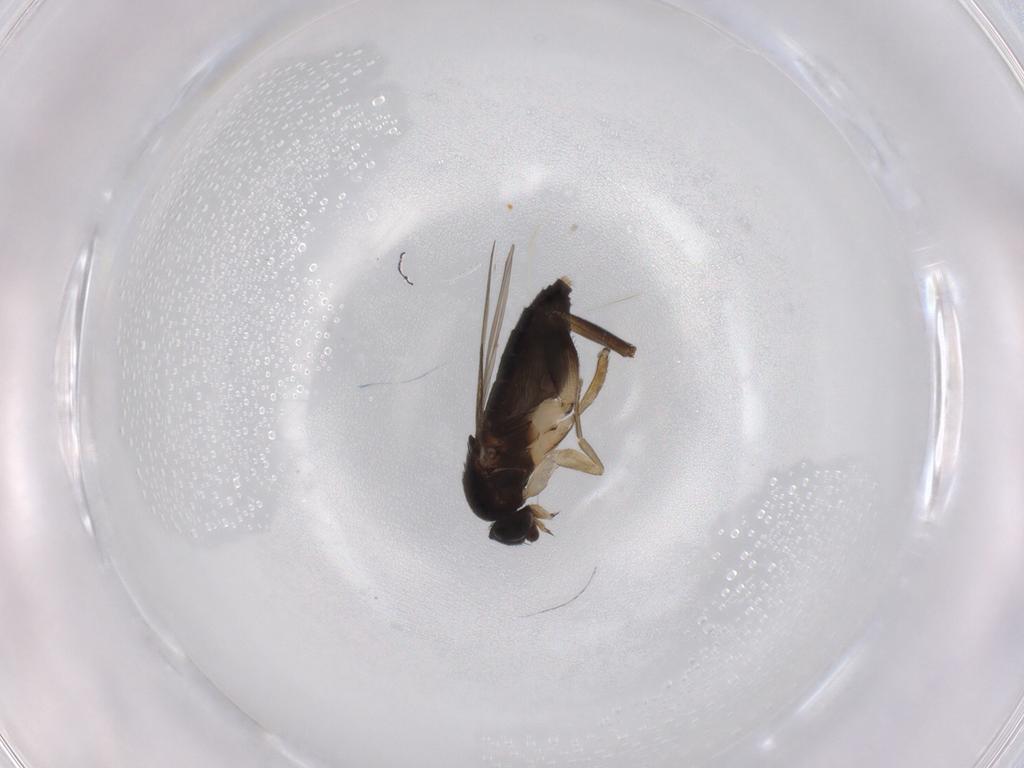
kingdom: Animalia
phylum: Arthropoda
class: Insecta
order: Diptera
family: Phoridae
